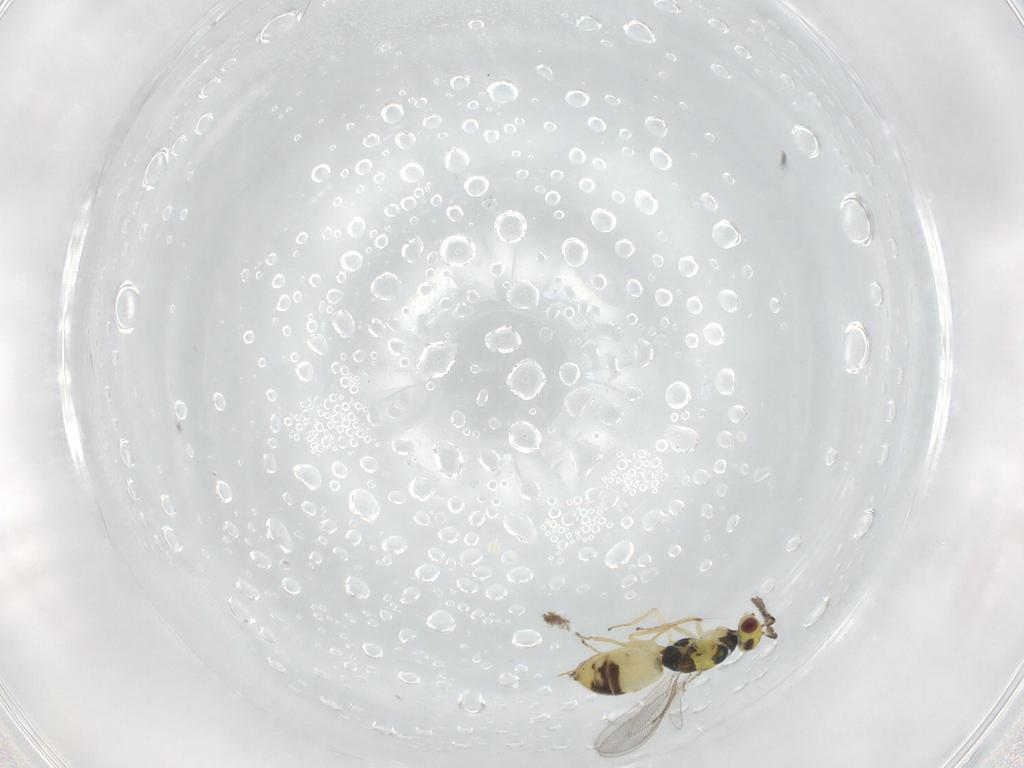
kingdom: Animalia
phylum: Arthropoda
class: Insecta
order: Hymenoptera
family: Eulophidae
